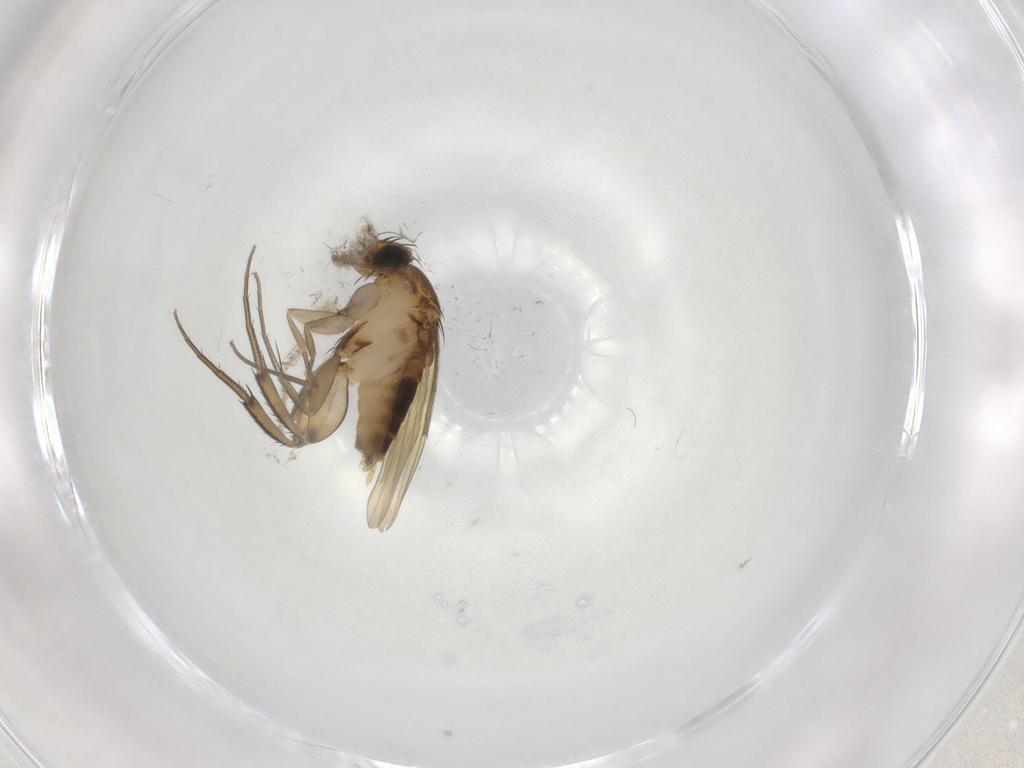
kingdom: Animalia
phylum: Arthropoda
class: Insecta
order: Diptera
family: Phoridae
